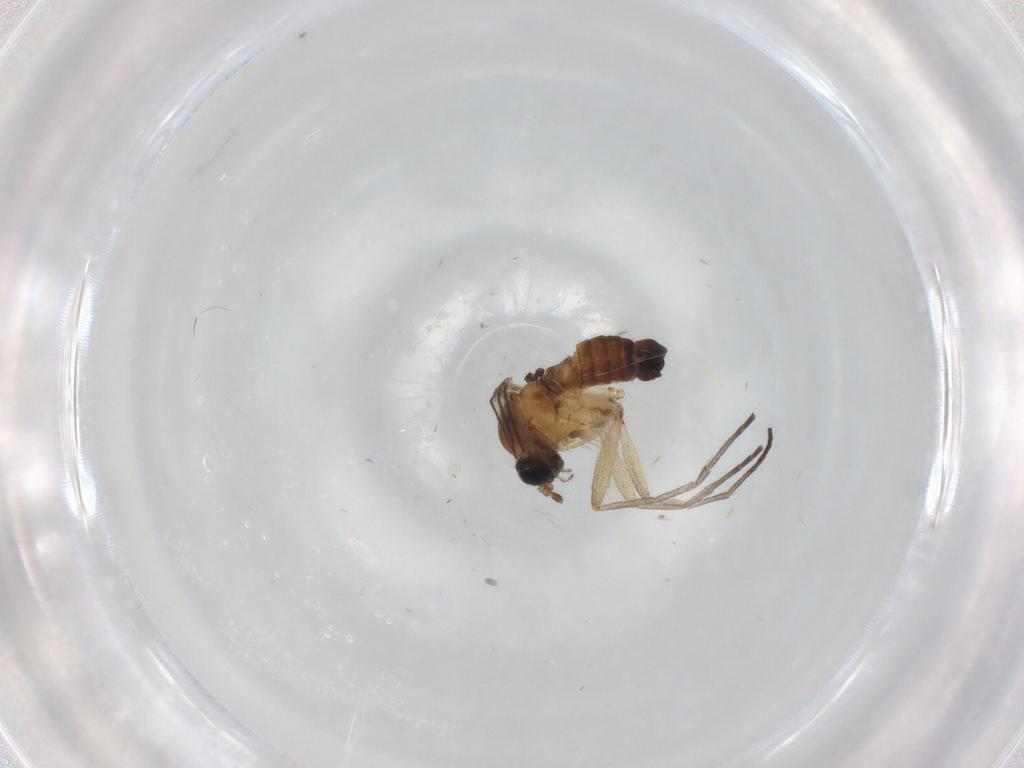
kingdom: Animalia
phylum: Arthropoda
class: Insecta
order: Diptera
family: Sciaridae
